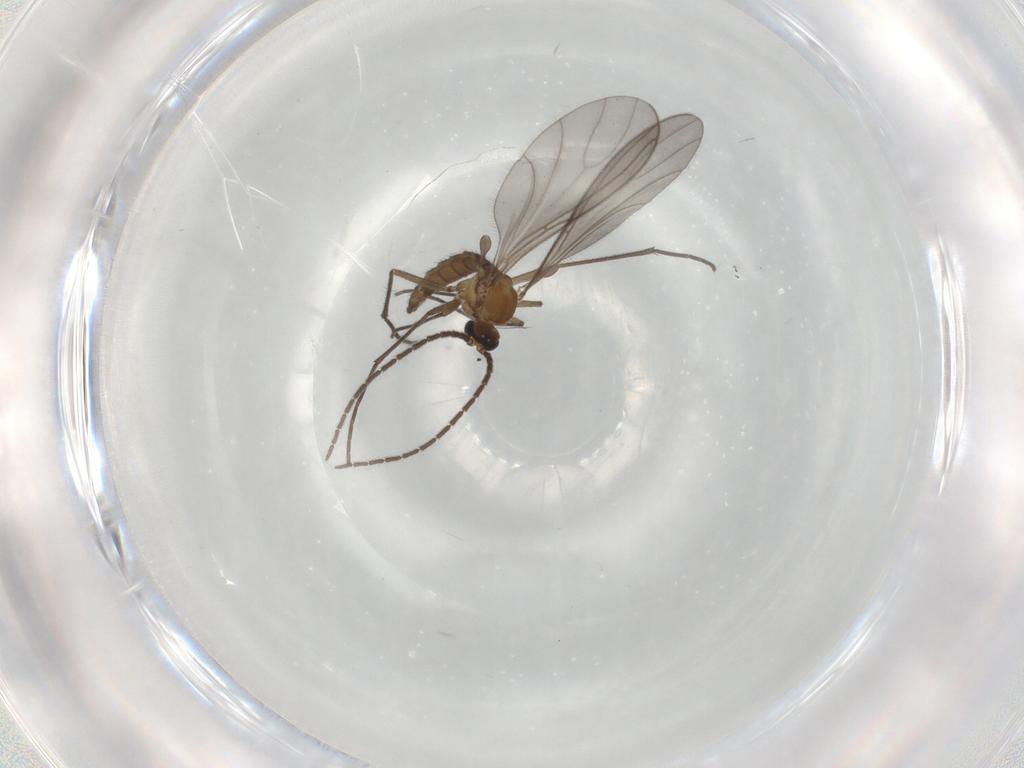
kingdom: Animalia
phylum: Arthropoda
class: Insecta
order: Diptera
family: Sciaridae
